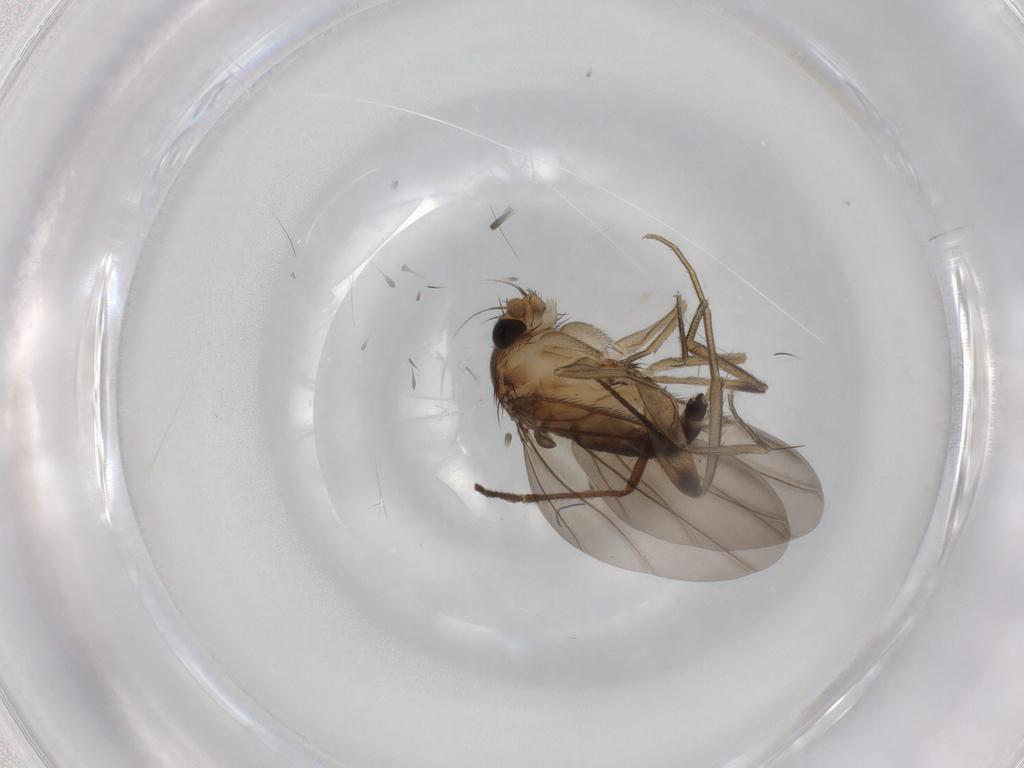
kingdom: Animalia
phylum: Arthropoda
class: Insecta
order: Diptera
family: Phoridae
